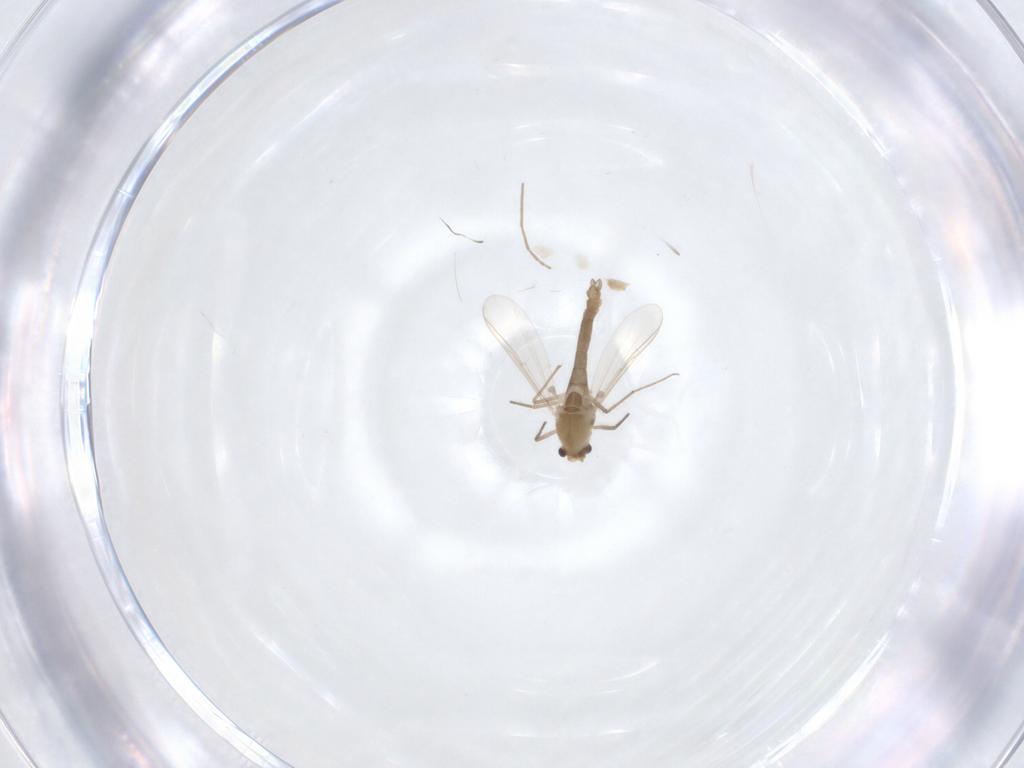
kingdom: Animalia
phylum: Arthropoda
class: Insecta
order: Diptera
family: Chironomidae
